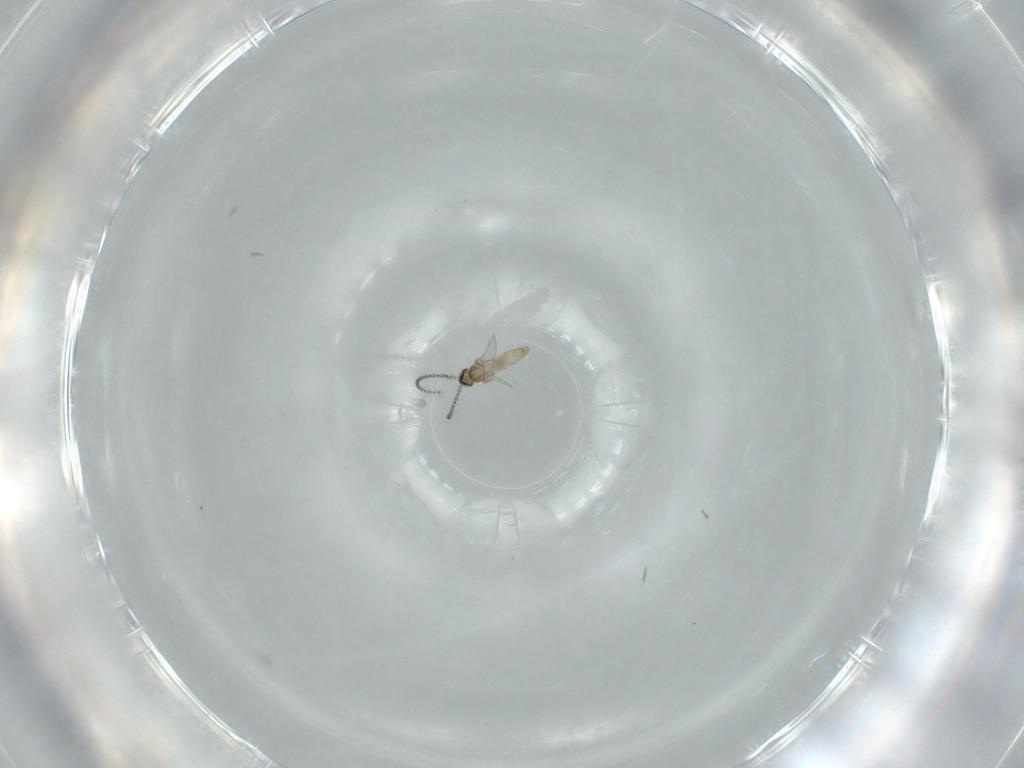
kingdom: Animalia
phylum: Arthropoda
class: Insecta
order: Diptera
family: Cecidomyiidae
